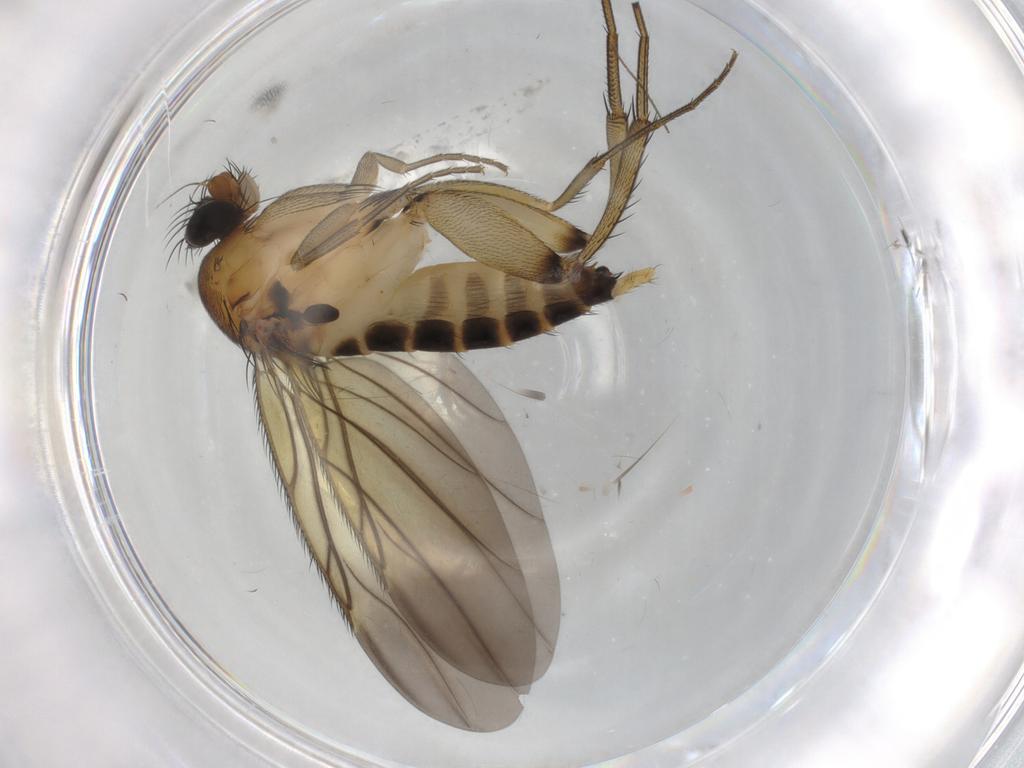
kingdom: Animalia
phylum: Arthropoda
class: Insecta
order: Diptera
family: Phoridae
